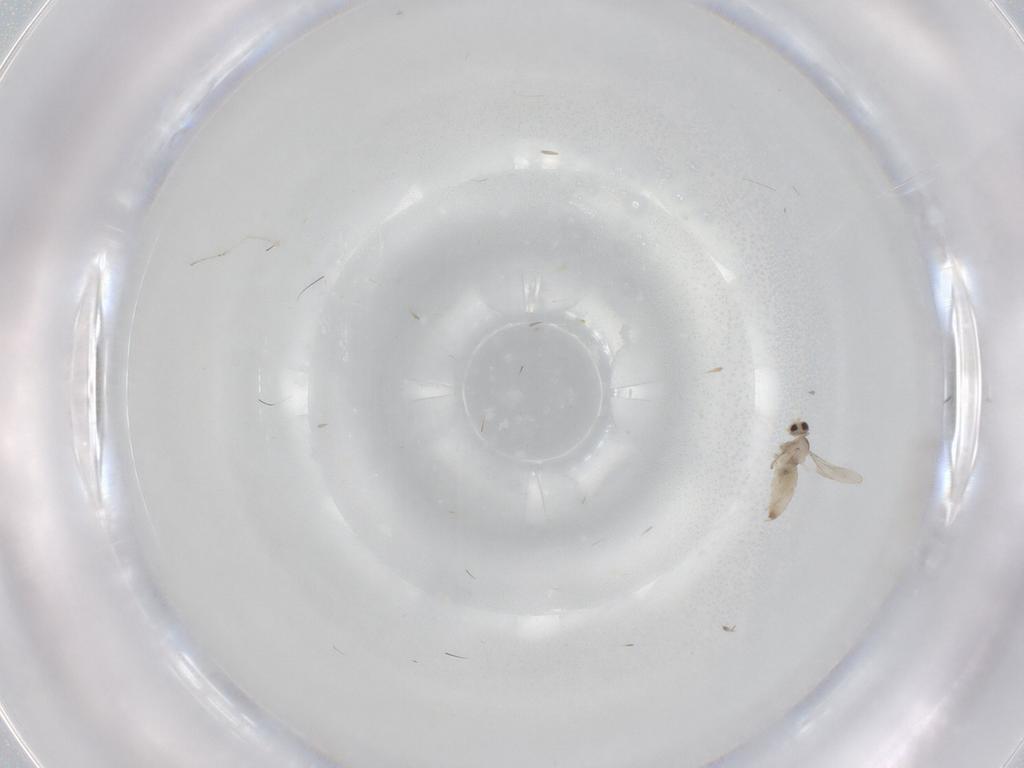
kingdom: Animalia
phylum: Arthropoda
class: Insecta
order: Diptera
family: Cecidomyiidae
